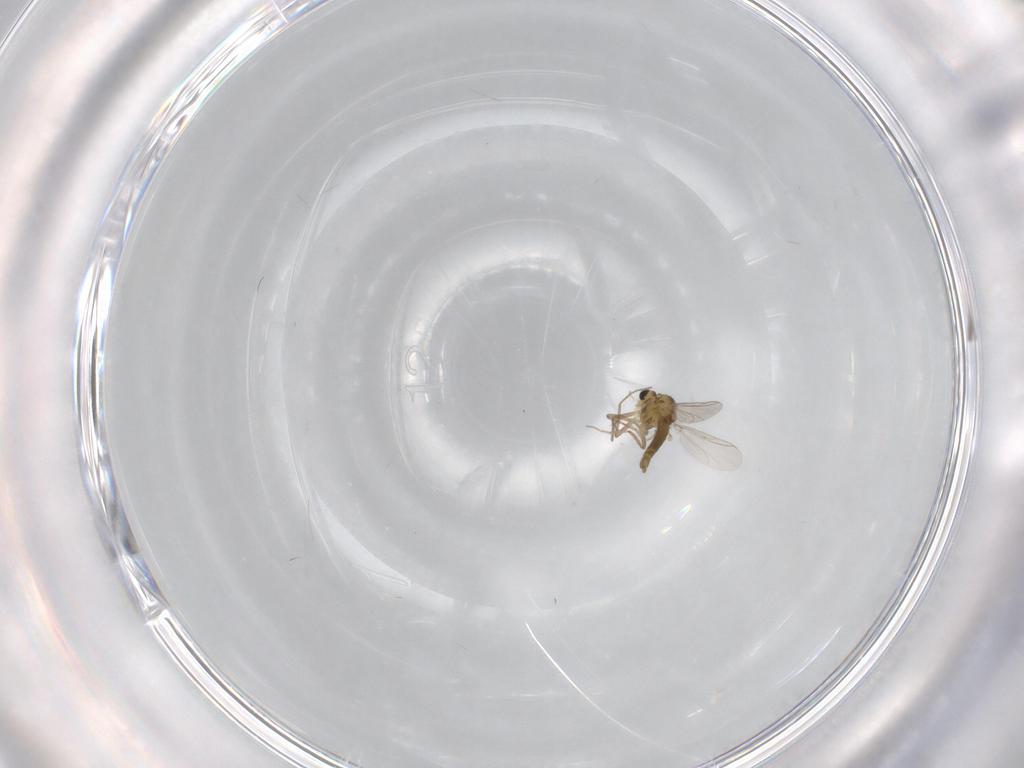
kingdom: Animalia
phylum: Arthropoda
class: Insecta
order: Diptera
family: Chironomidae
